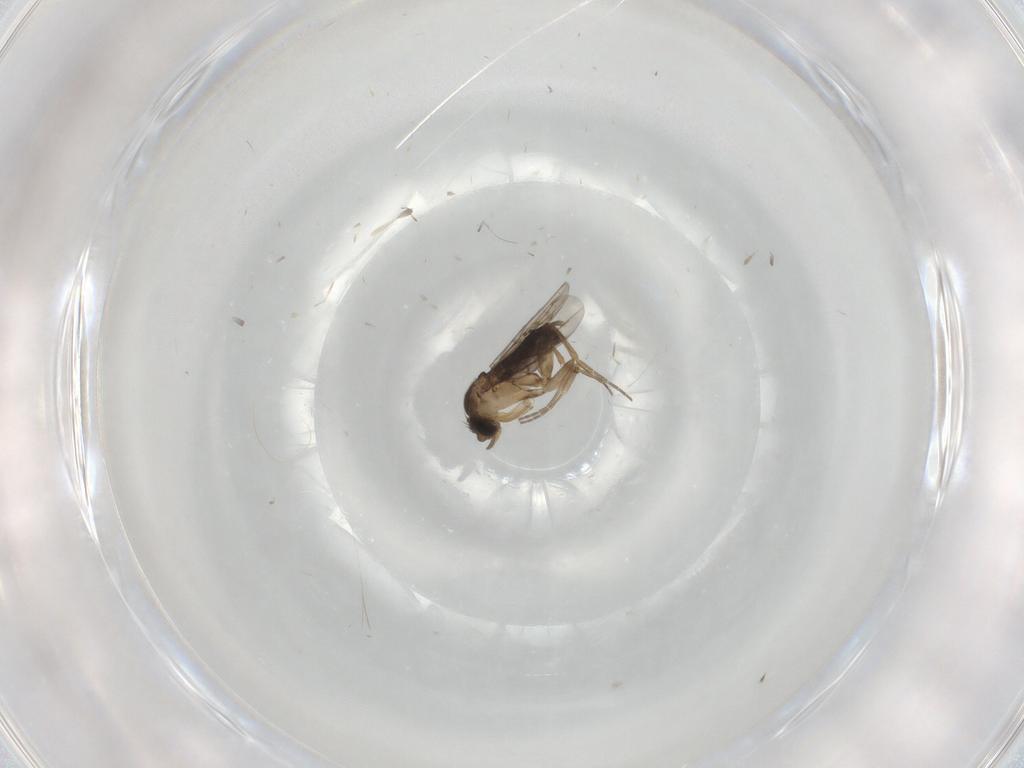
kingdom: Animalia
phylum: Arthropoda
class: Insecta
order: Diptera
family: Phoridae
